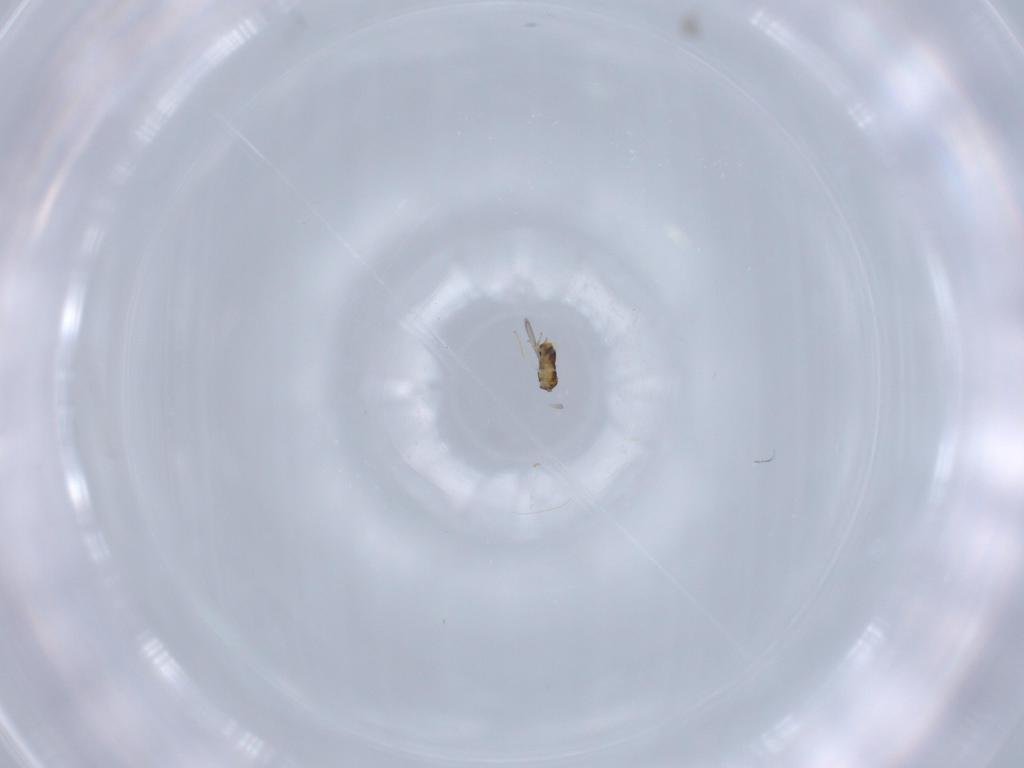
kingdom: Animalia
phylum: Arthropoda
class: Insecta
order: Hymenoptera
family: Aphelinidae
